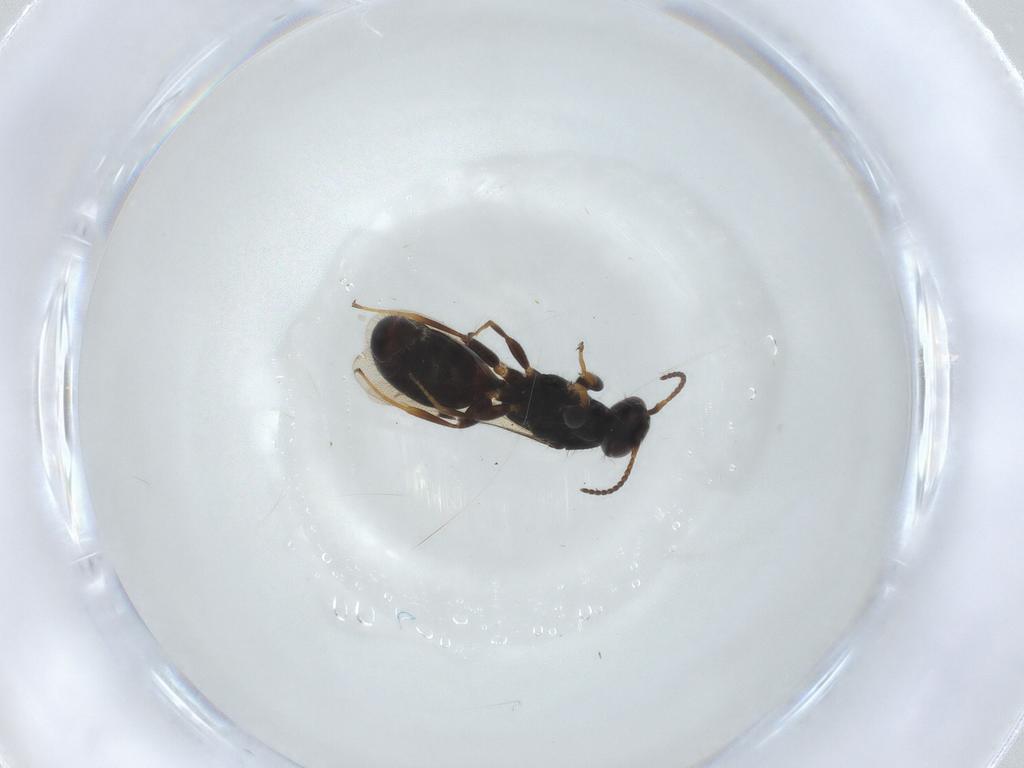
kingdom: Animalia
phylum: Arthropoda
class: Insecta
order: Hymenoptera
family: Bethylidae
